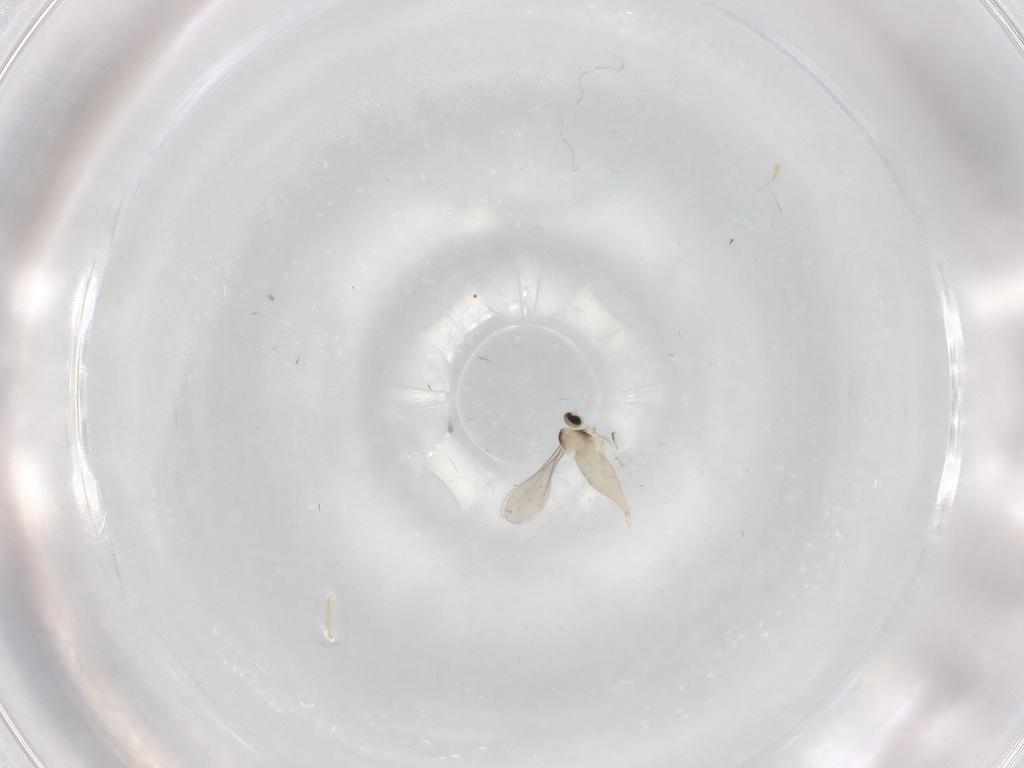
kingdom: Animalia
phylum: Arthropoda
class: Insecta
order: Diptera
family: Cecidomyiidae
